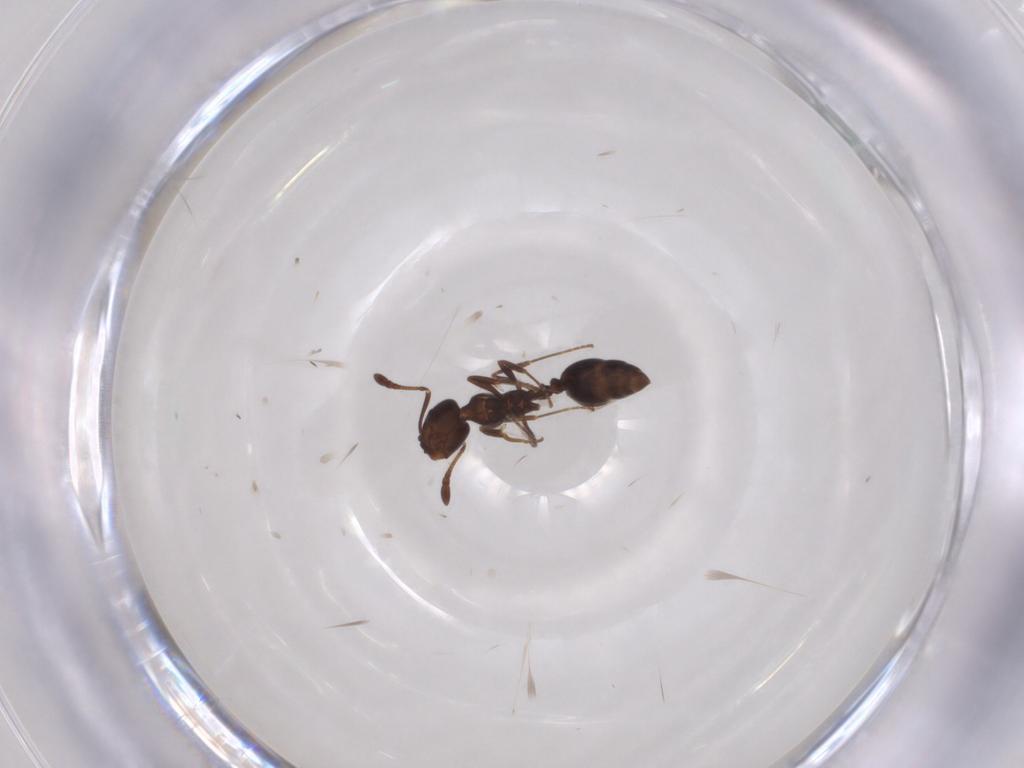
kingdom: Animalia
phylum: Arthropoda
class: Insecta
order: Hymenoptera
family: Formicidae
